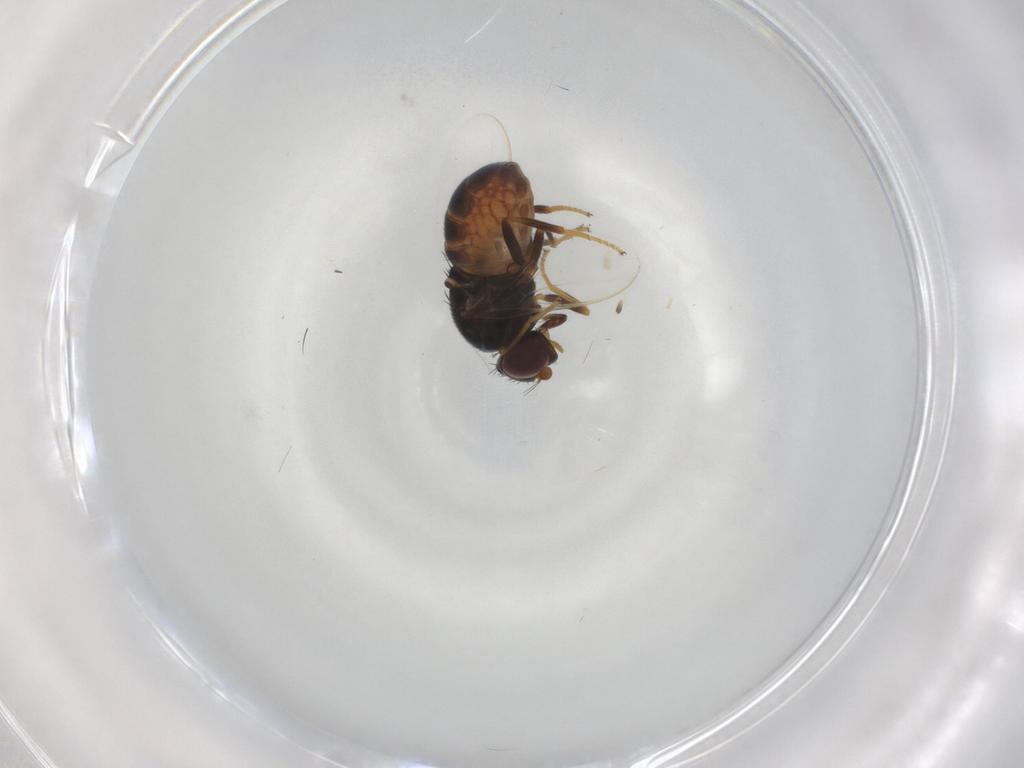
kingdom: Animalia
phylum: Arthropoda
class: Insecta
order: Diptera
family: Chloropidae
